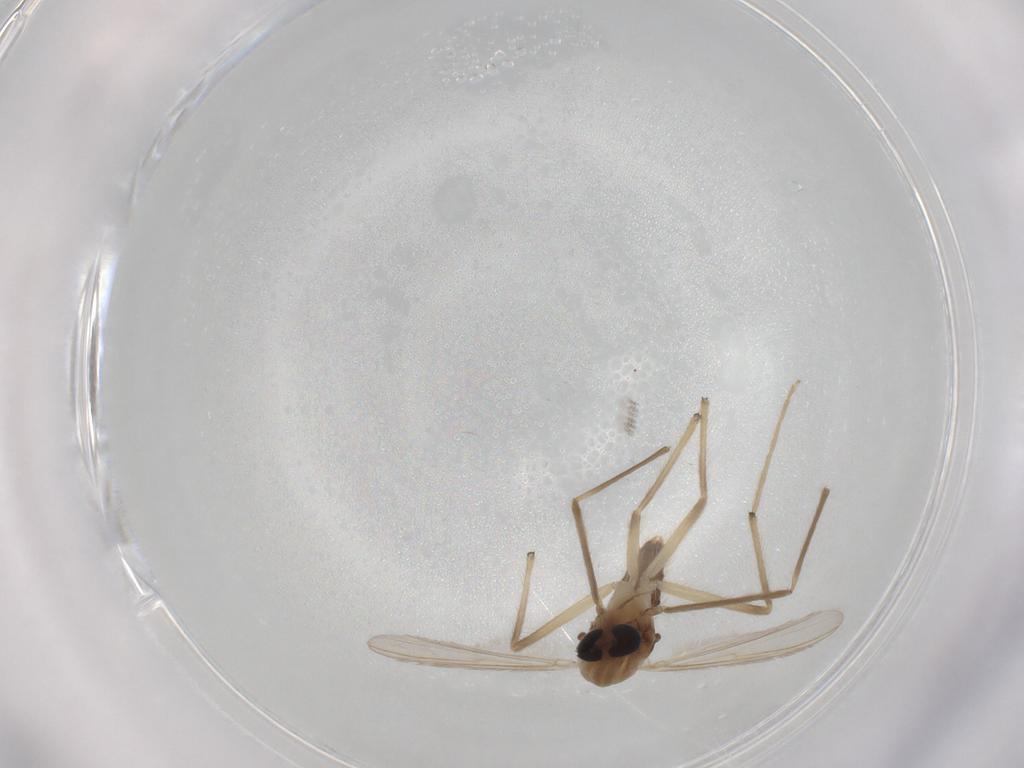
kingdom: Animalia
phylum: Arthropoda
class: Insecta
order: Diptera
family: Chironomidae
